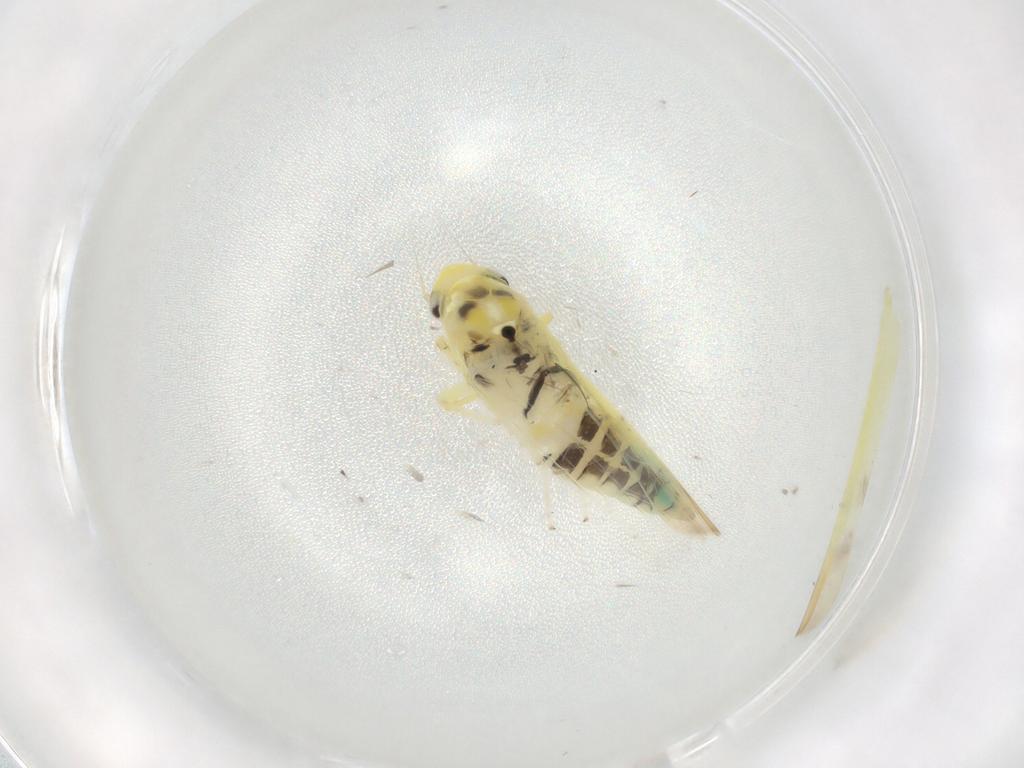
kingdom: Animalia
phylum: Arthropoda
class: Insecta
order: Hemiptera
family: Cicadellidae
